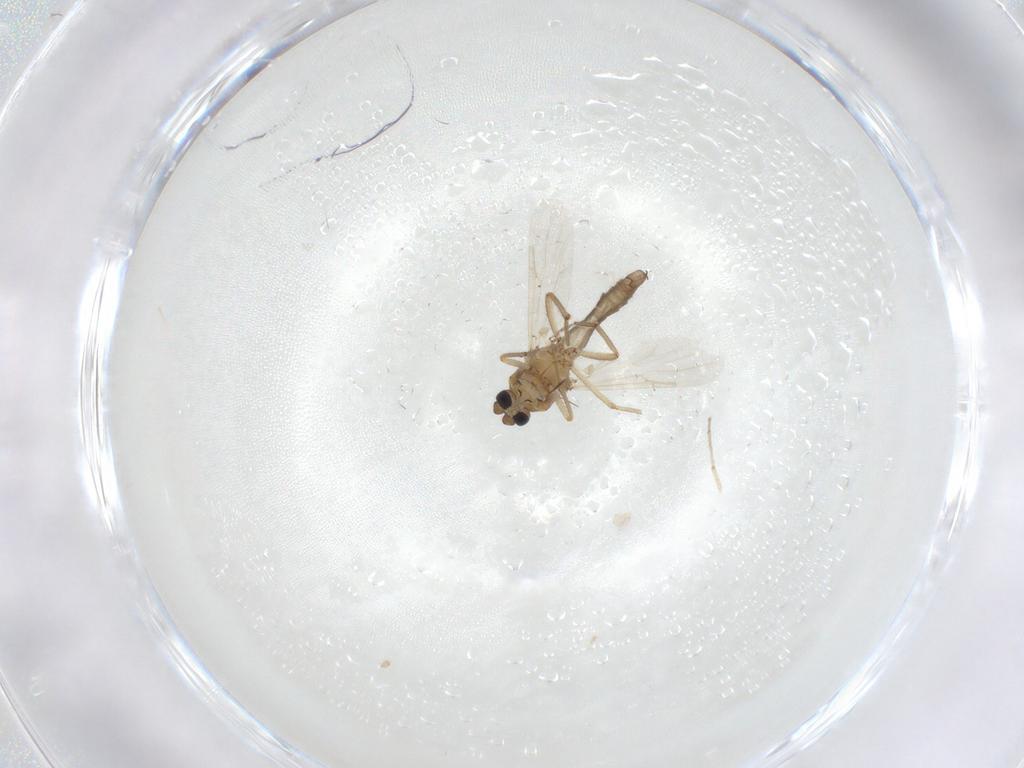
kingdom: Animalia
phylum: Arthropoda
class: Insecta
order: Diptera
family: Ceratopogonidae
